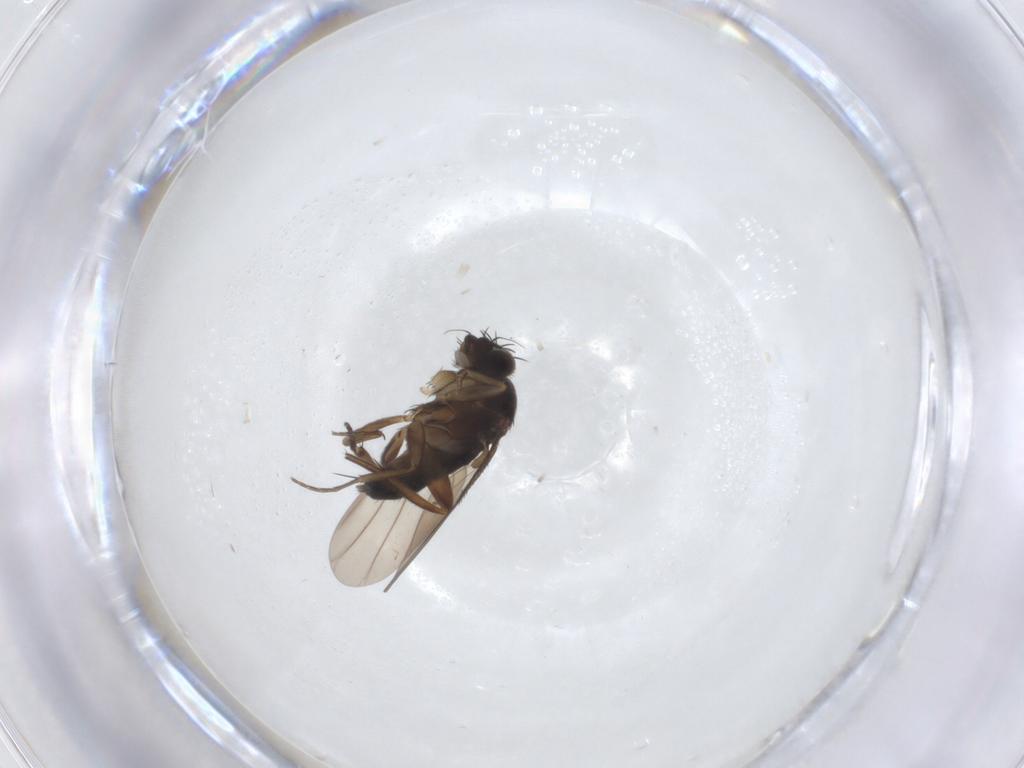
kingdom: Animalia
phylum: Arthropoda
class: Insecta
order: Diptera
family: Phoridae
